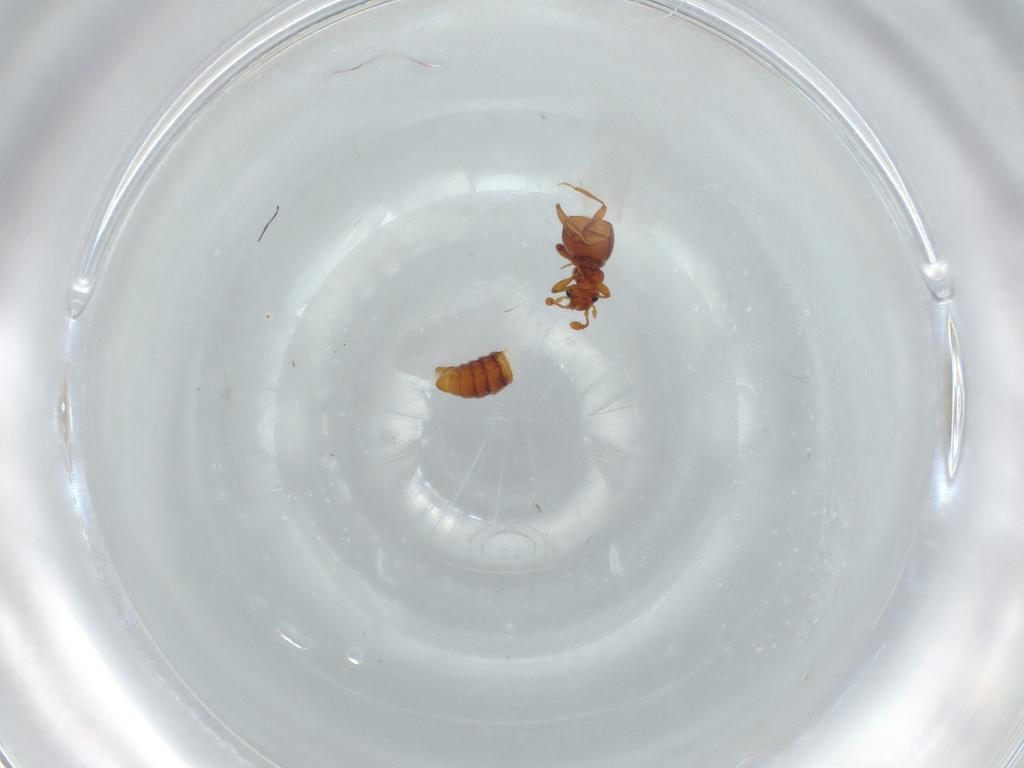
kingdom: Animalia
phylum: Arthropoda
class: Insecta
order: Coleoptera
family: Staphylinidae
